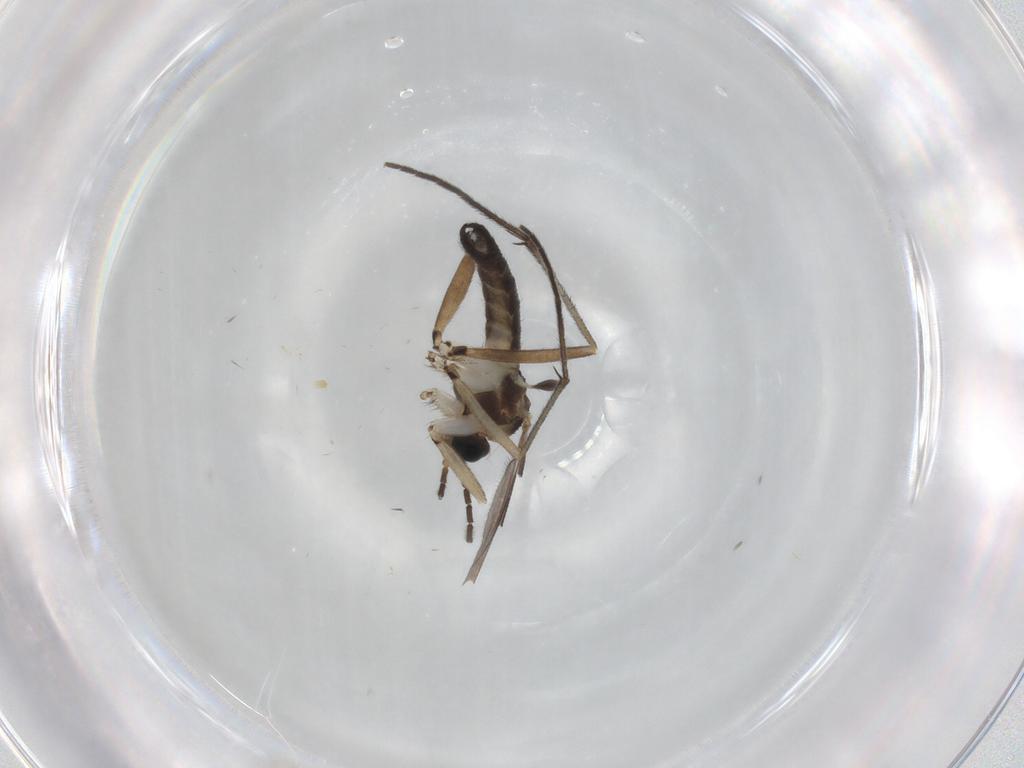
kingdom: Animalia
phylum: Arthropoda
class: Insecta
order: Diptera
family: Sciaridae
